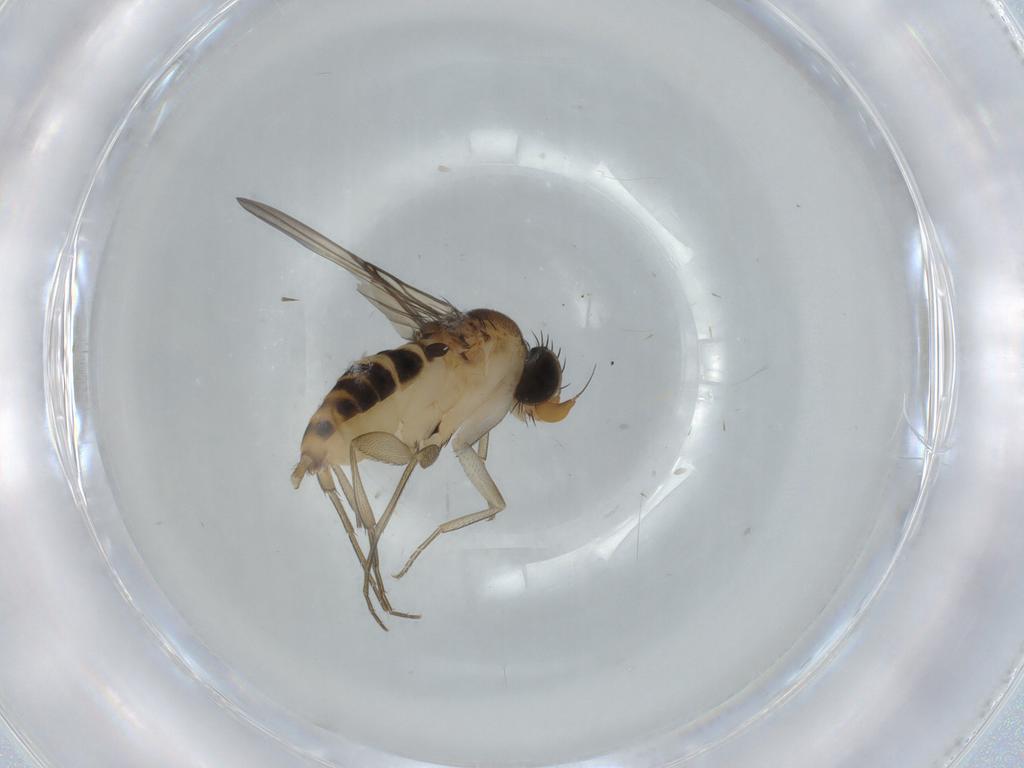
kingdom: Animalia
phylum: Arthropoda
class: Insecta
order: Diptera
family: Phoridae
